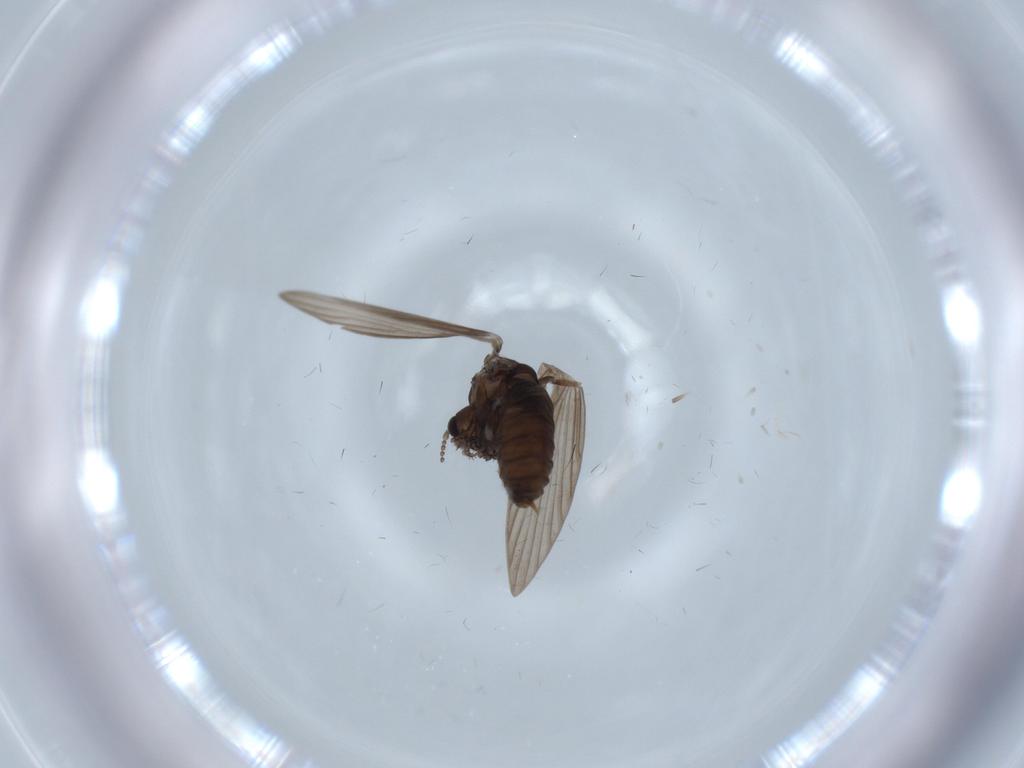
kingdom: Animalia
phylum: Arthropoda
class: Insecta
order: Diptera
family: Psychodidae
